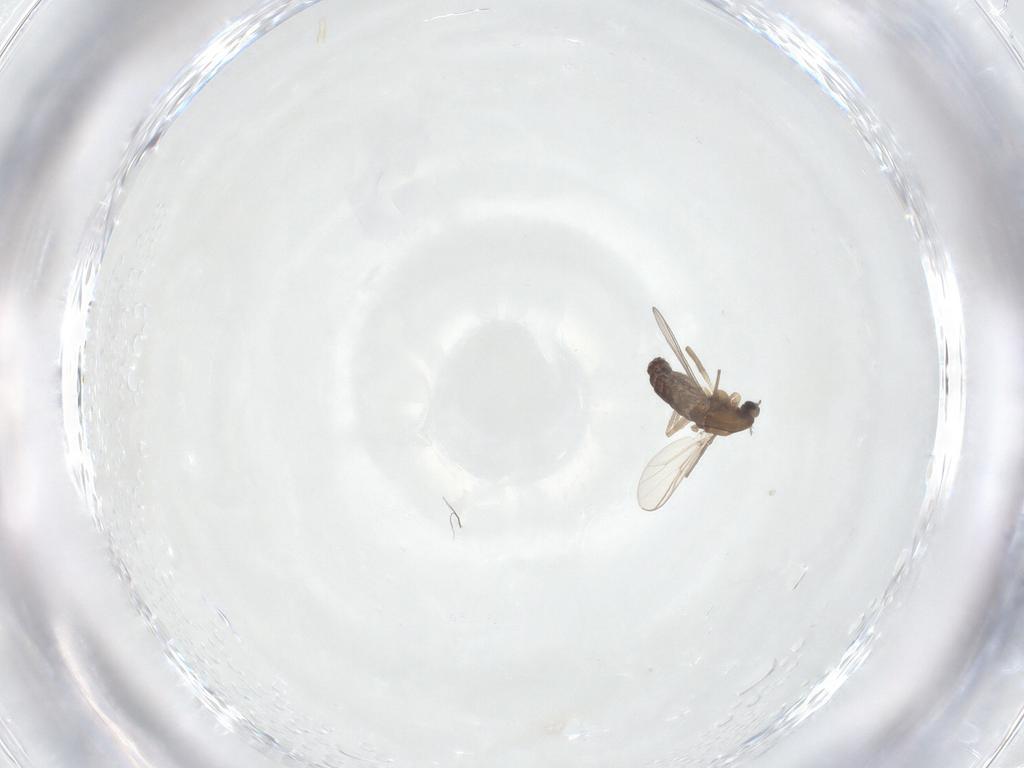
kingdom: Animalia
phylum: Arthropoda
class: Insecta
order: Diptera
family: Chironomidae
